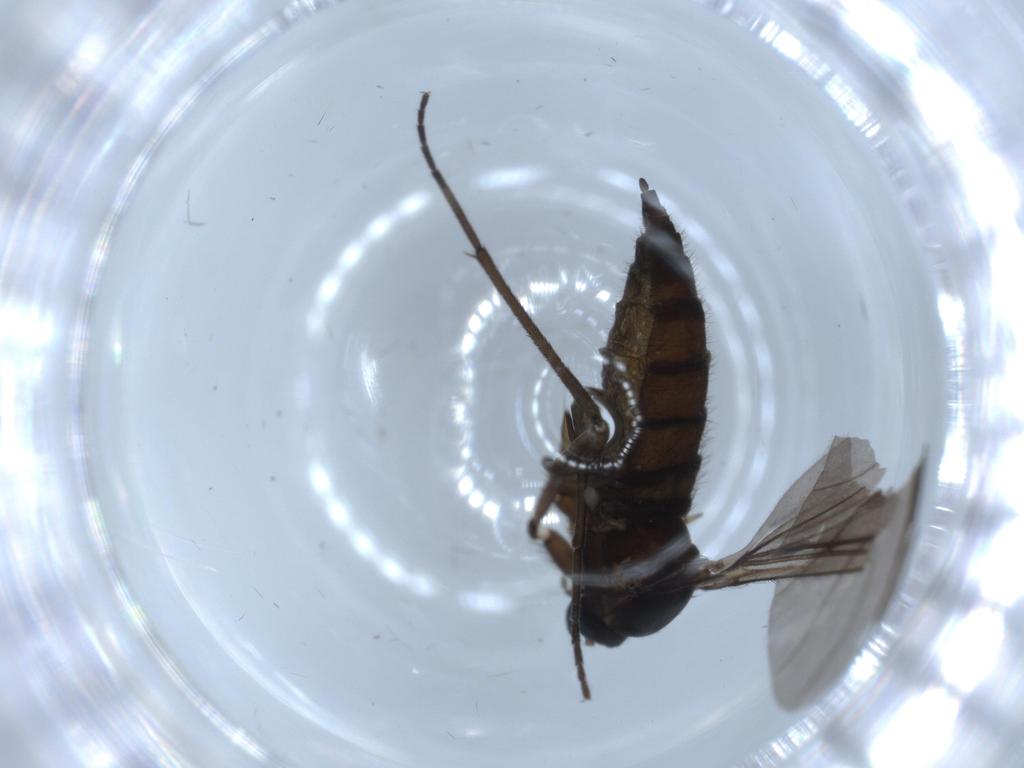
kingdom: Animalia
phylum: Arthropoda
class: Insecta
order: Diptera
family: Sciaridae
